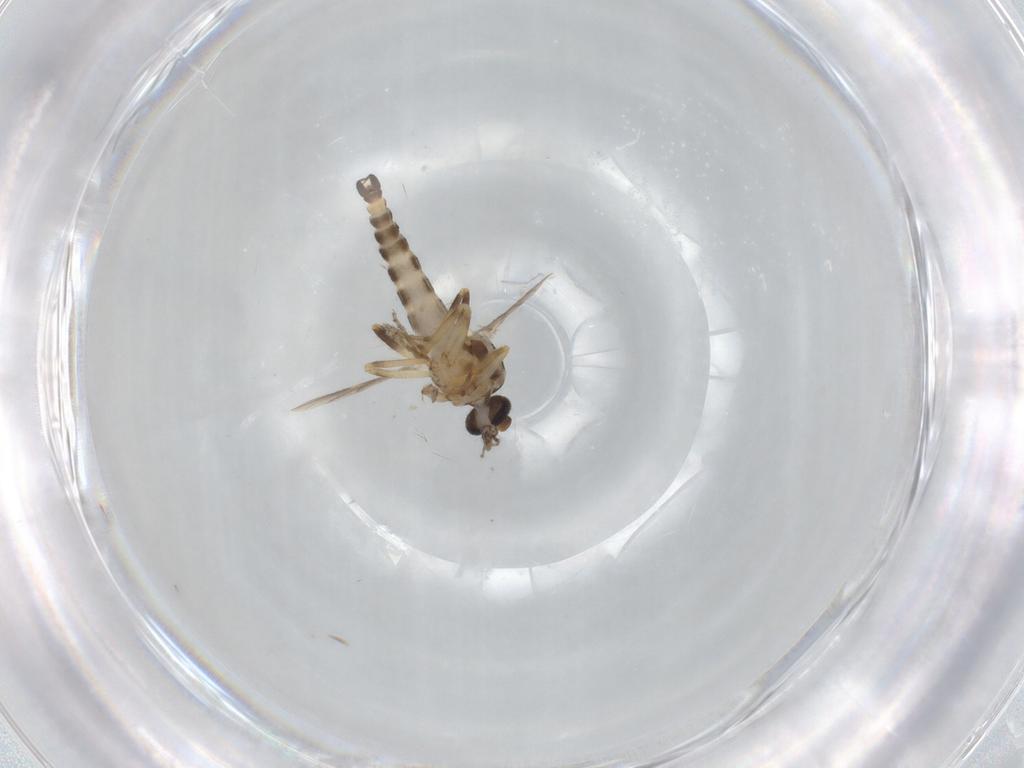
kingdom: Animalia
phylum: Arthropoda
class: Insecta
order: Diptera
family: Ceratopogonidae
